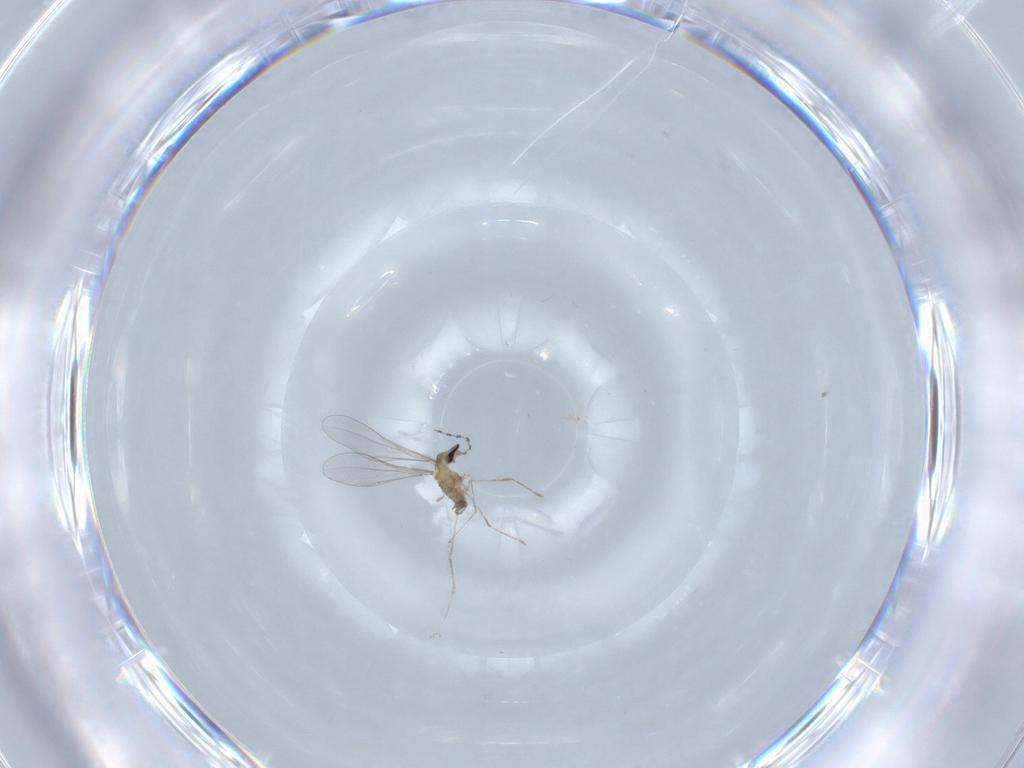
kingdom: Animalia
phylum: Arthropoda
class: Insecta
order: Diptera
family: Cecidomyiidae
